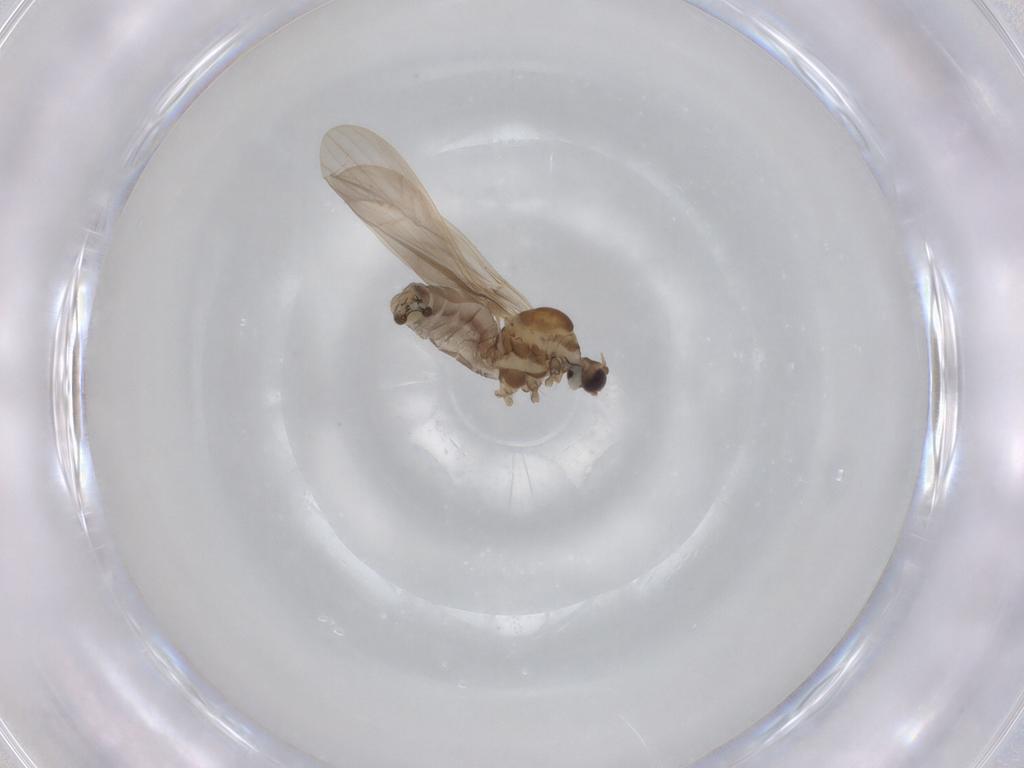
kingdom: Animalia
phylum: Arthropoda
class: Insecta
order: Diptera
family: Limoniidae
